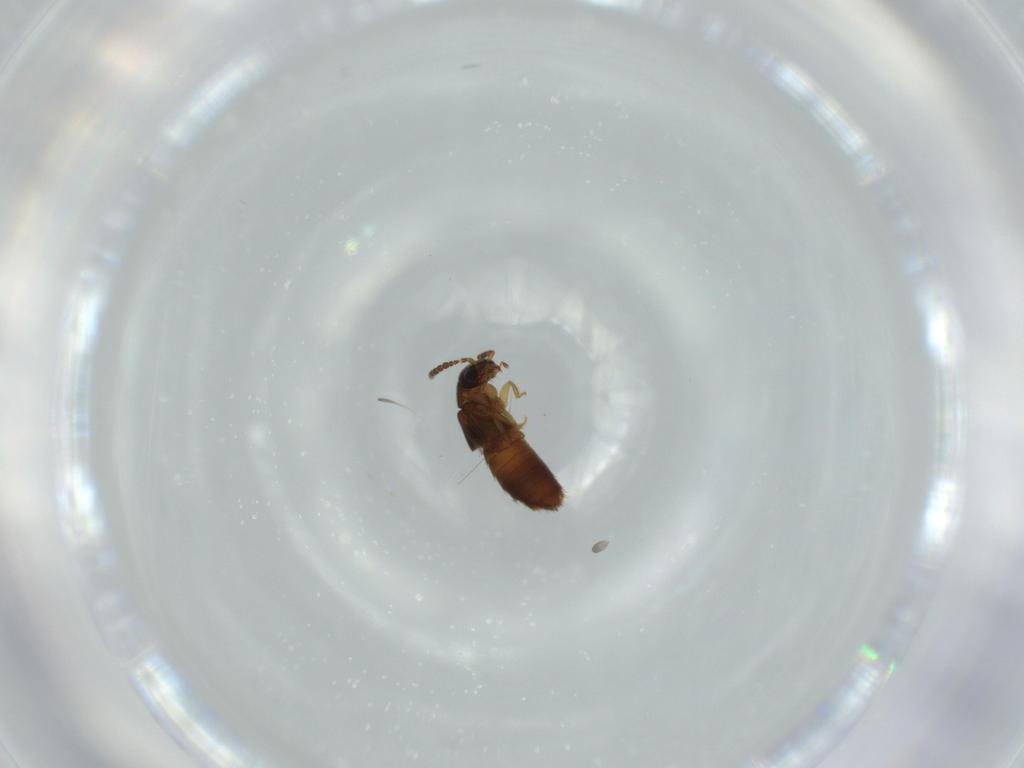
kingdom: Animalia
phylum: Arthropoda
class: Insecta
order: Coleoptera
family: Staphylinidae
